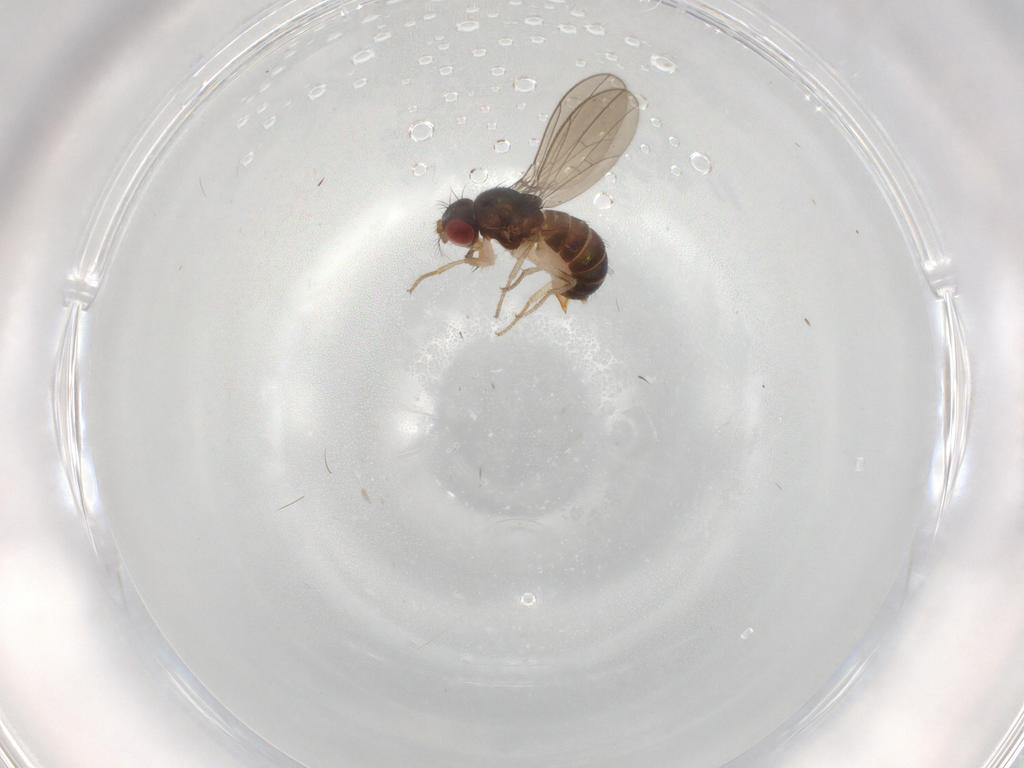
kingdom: Animalia
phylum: Arthropoda
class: Insecta
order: Diptera
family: Drosophilidae
